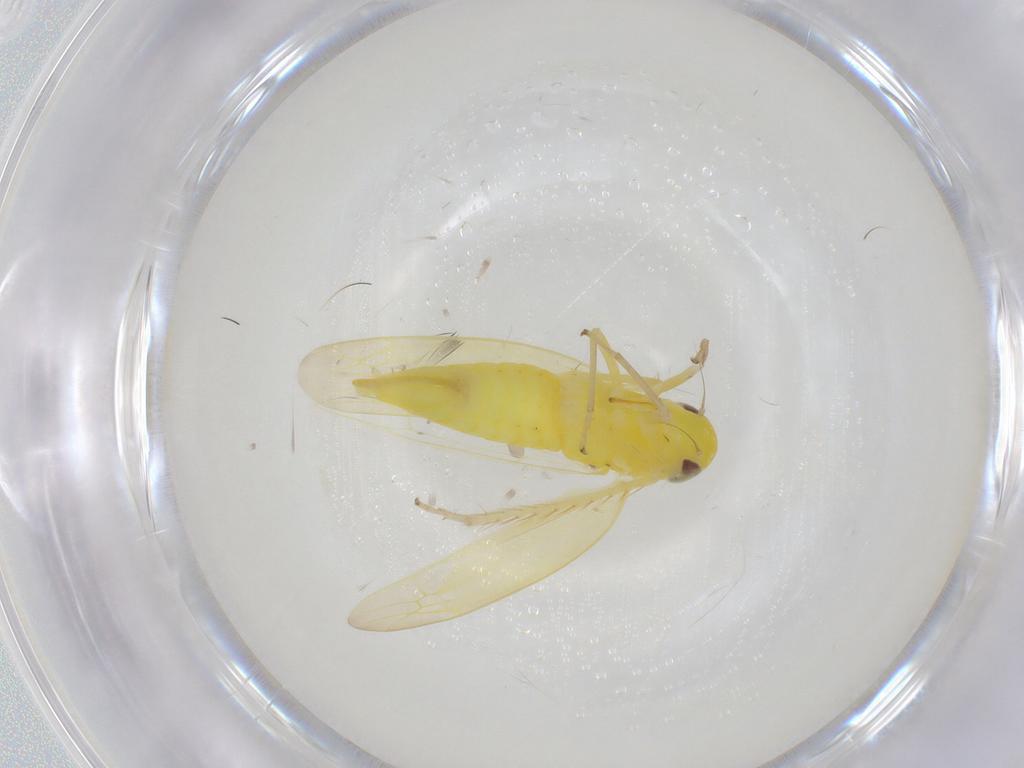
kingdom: Animalia
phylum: Arthropoda
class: Insecta
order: Hemiptera
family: Cicadellidae
